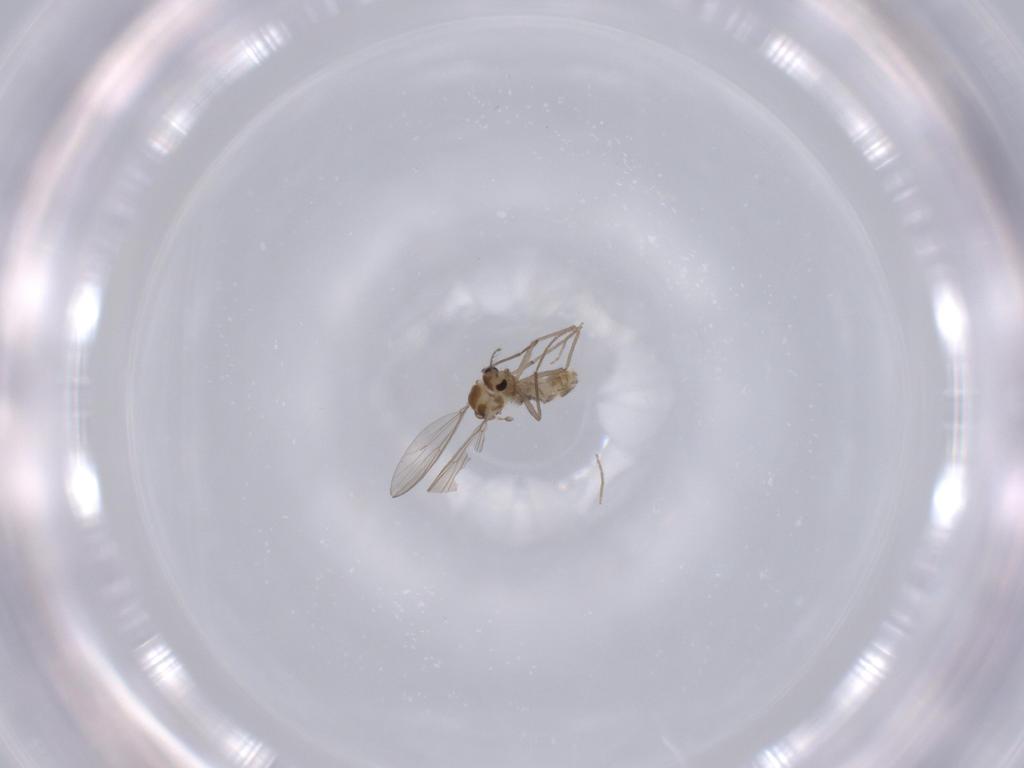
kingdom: Animalia
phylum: Arthropoda
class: Insecta
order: Diptera
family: Chironomidae
